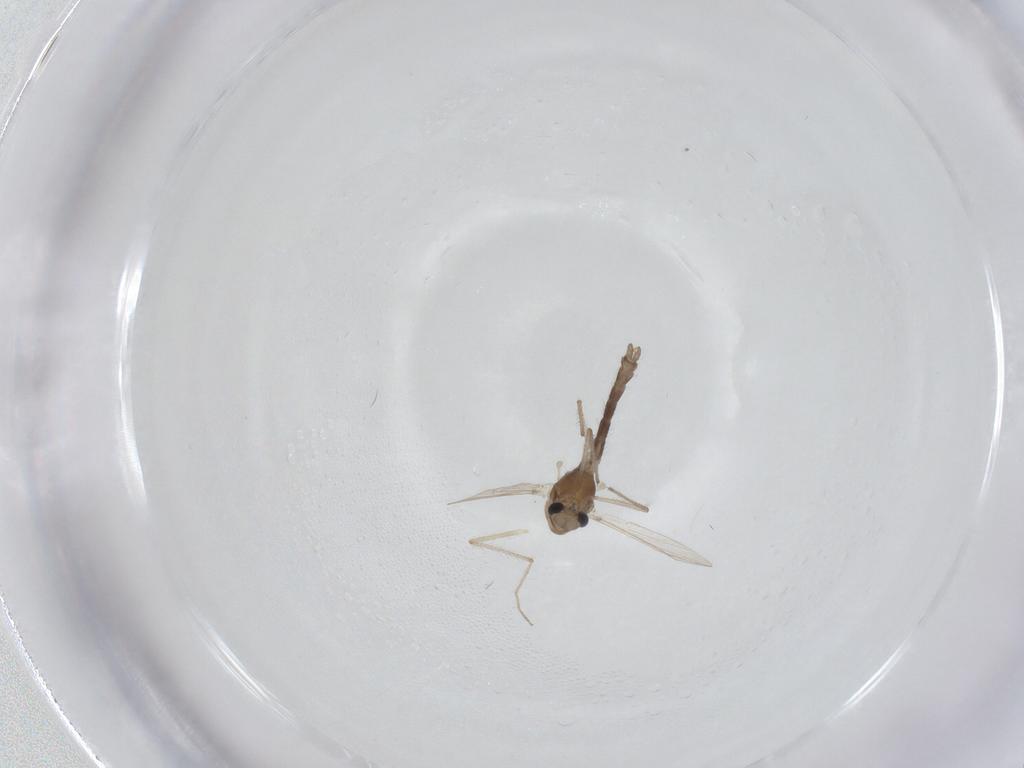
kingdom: Animalia
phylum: Arthropoda
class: Insecta
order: Diptera
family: Chironomidae
